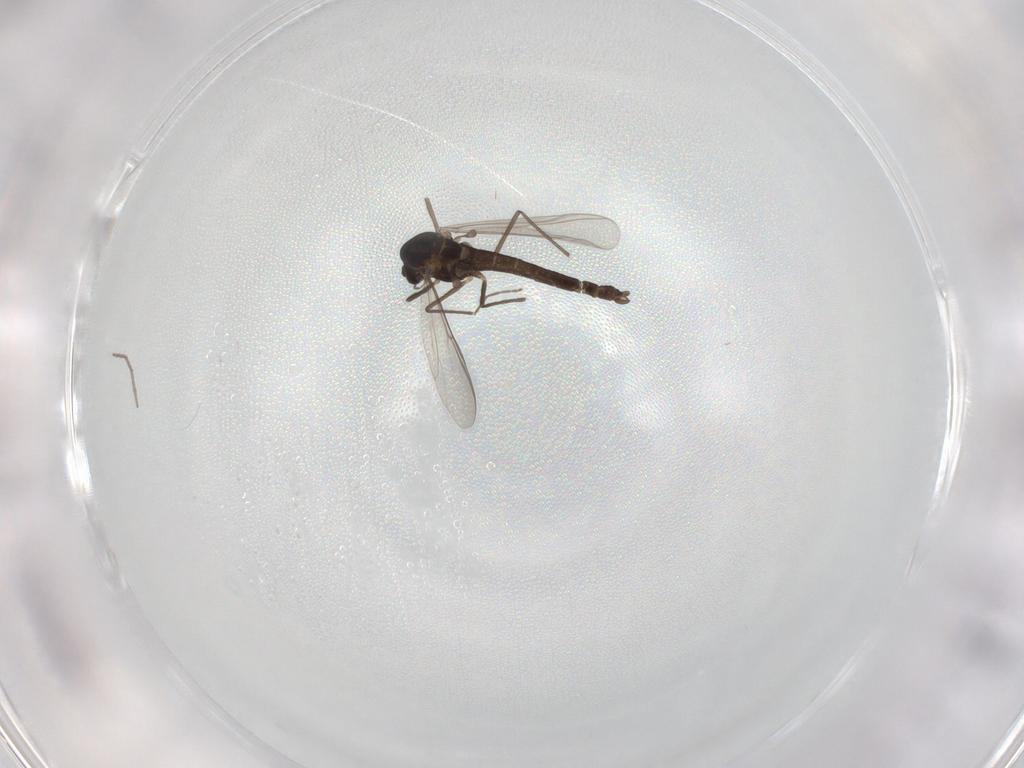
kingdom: Animalia
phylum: Arthropoda
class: Insecta
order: Diptera
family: Chironomidae
